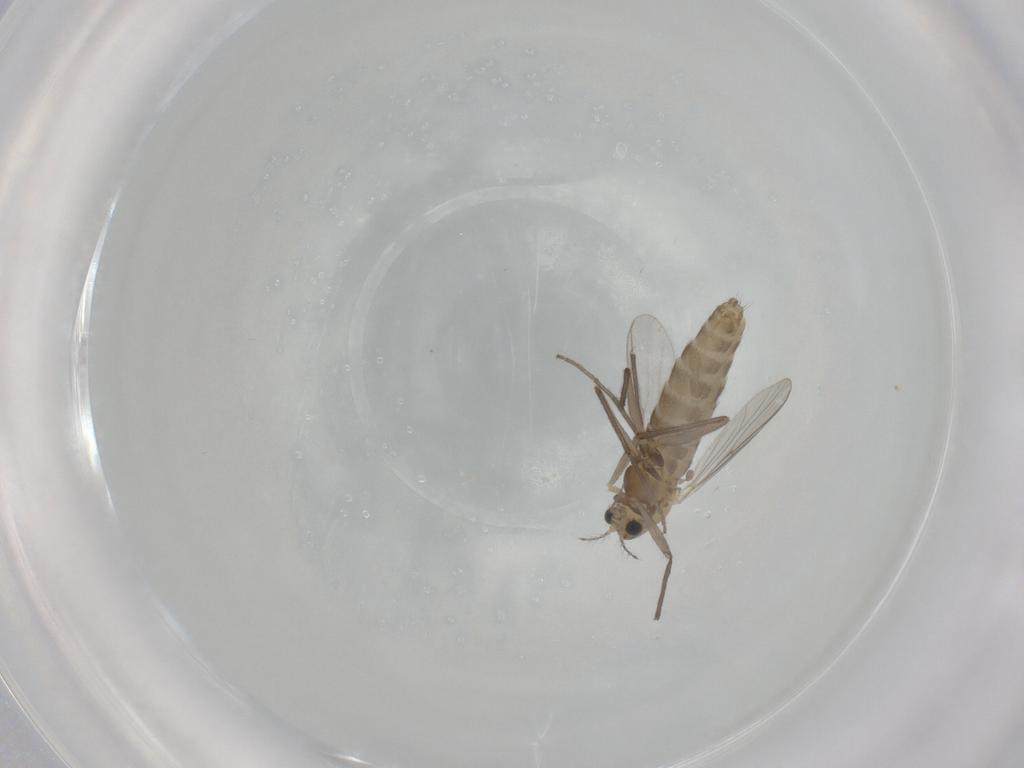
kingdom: Animalia
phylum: Arthropoda
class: Insecta
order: Diptera
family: Chironomidae
